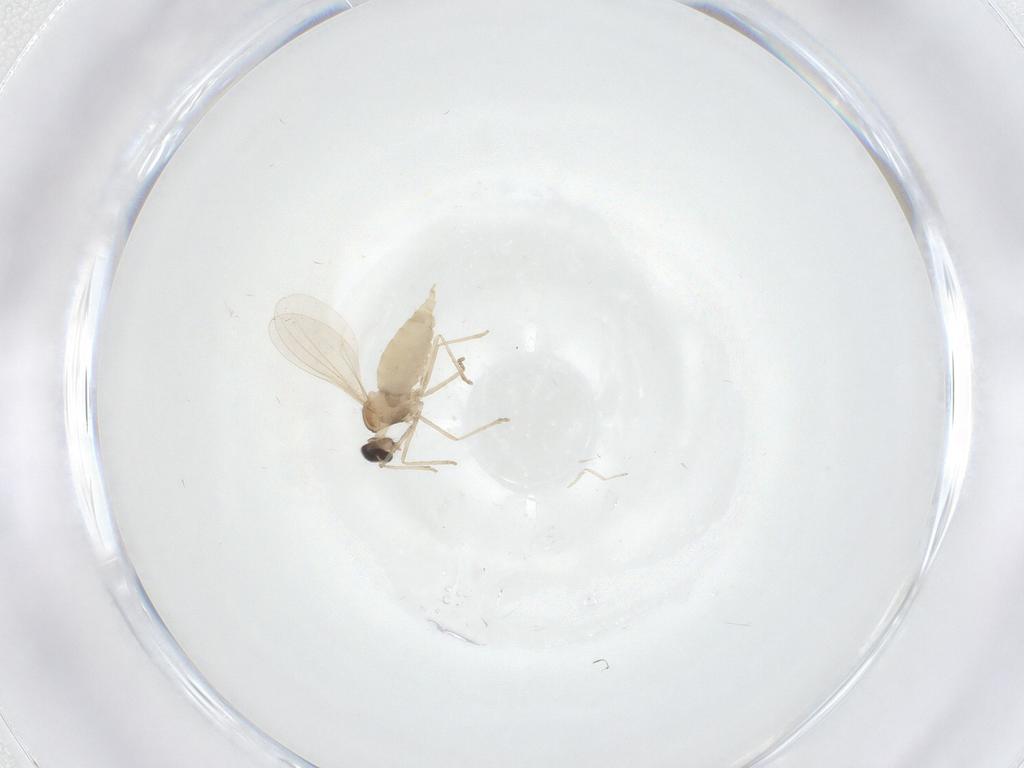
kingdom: Animalia
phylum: Arthropoda
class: Insecta
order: Diptera
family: Cecidomyiidae
